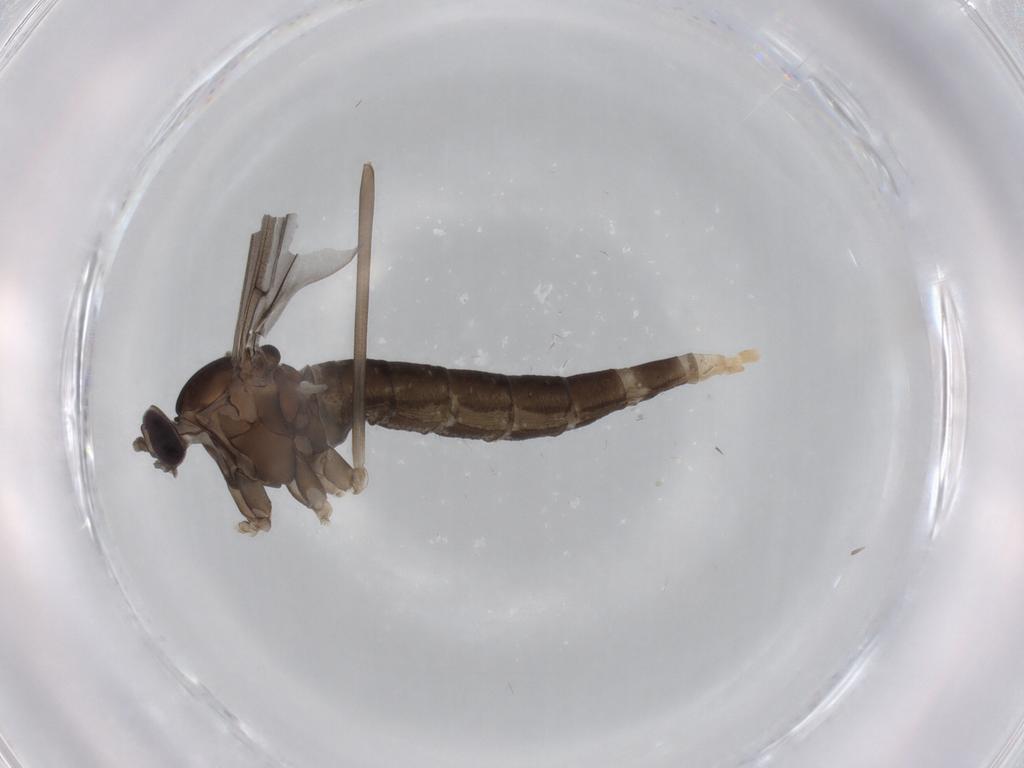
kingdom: Animalia
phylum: Arthropoda
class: Insecta
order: Diptera
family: Cecidomyiidae
